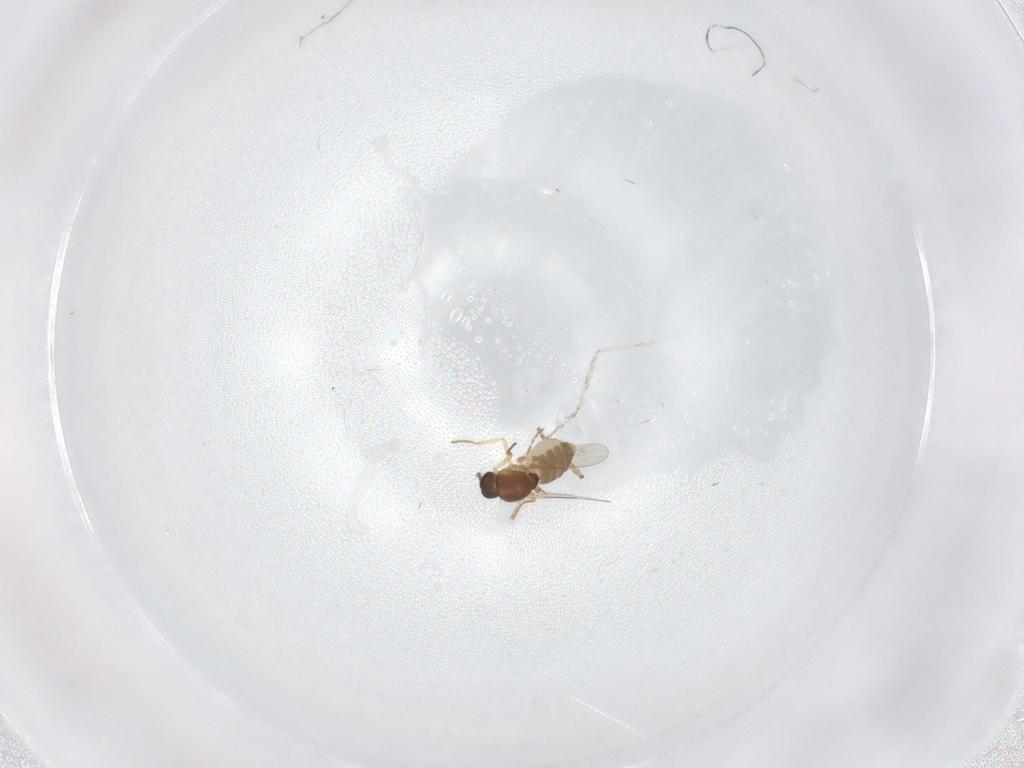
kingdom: Animalia
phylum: Arthropoda
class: Insecta
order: Diptera
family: Ceratopogonidae
